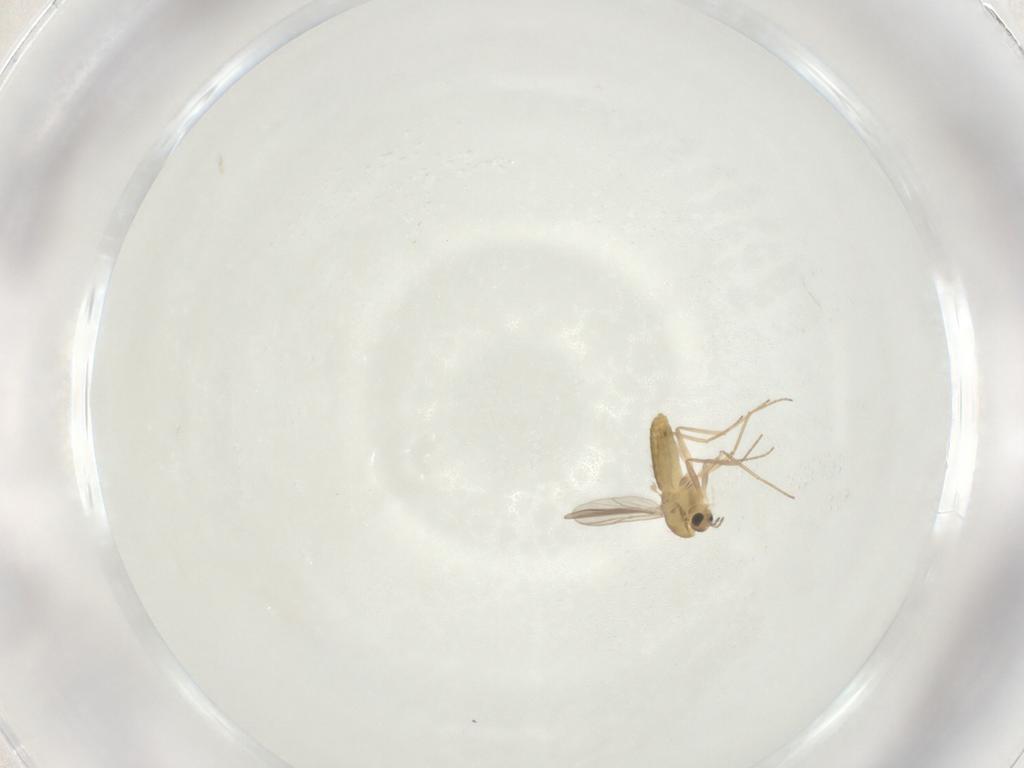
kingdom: Animalia
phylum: Arthropoda
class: Insecta
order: Diptera
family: Chironomidae
